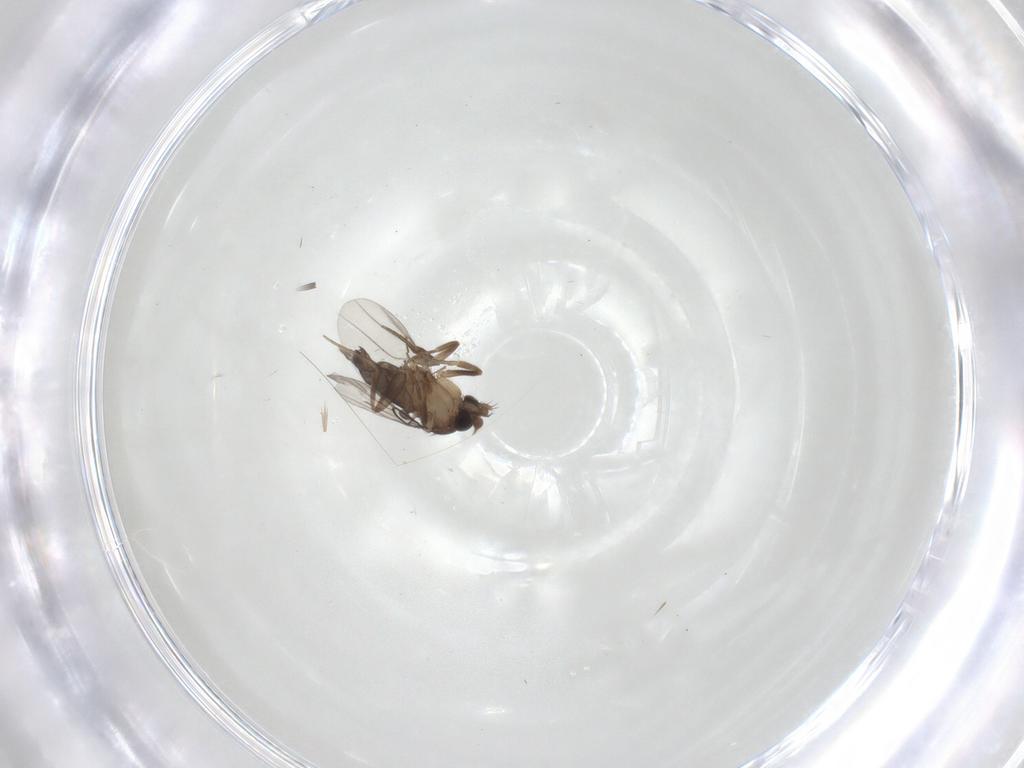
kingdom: Animalia
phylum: Arthropoda
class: Insecta
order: Diptera
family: Phoridae
